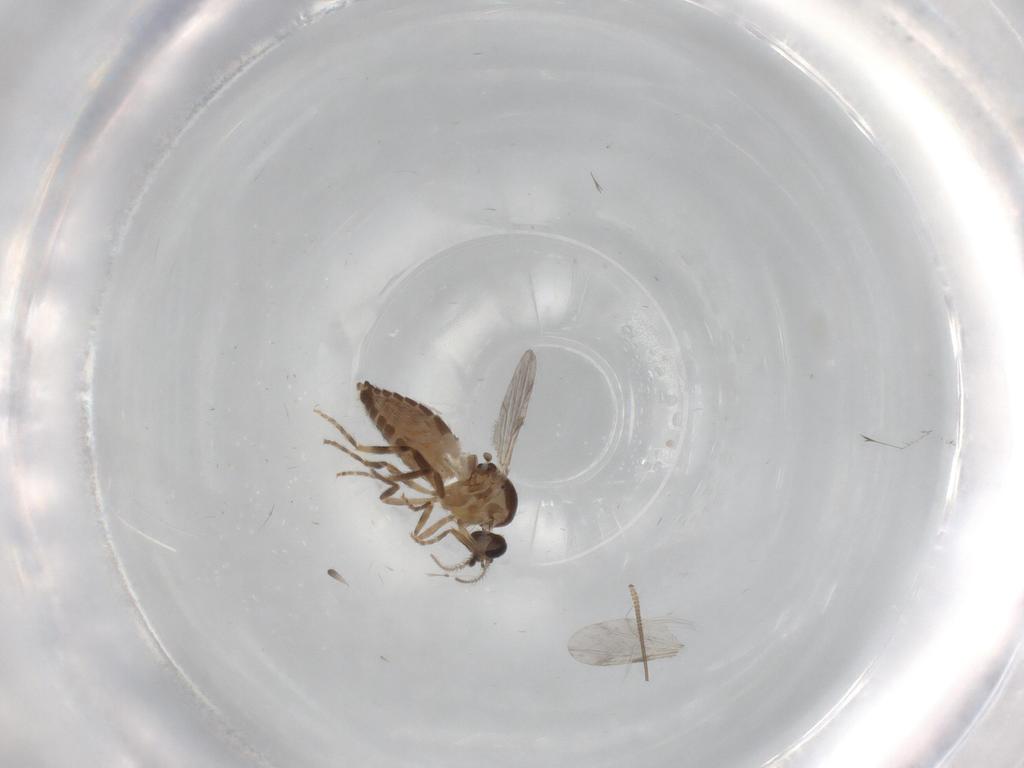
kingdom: Animalia
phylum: Arthropoda
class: Insecta
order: Diptera
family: Ceratopogonidae
